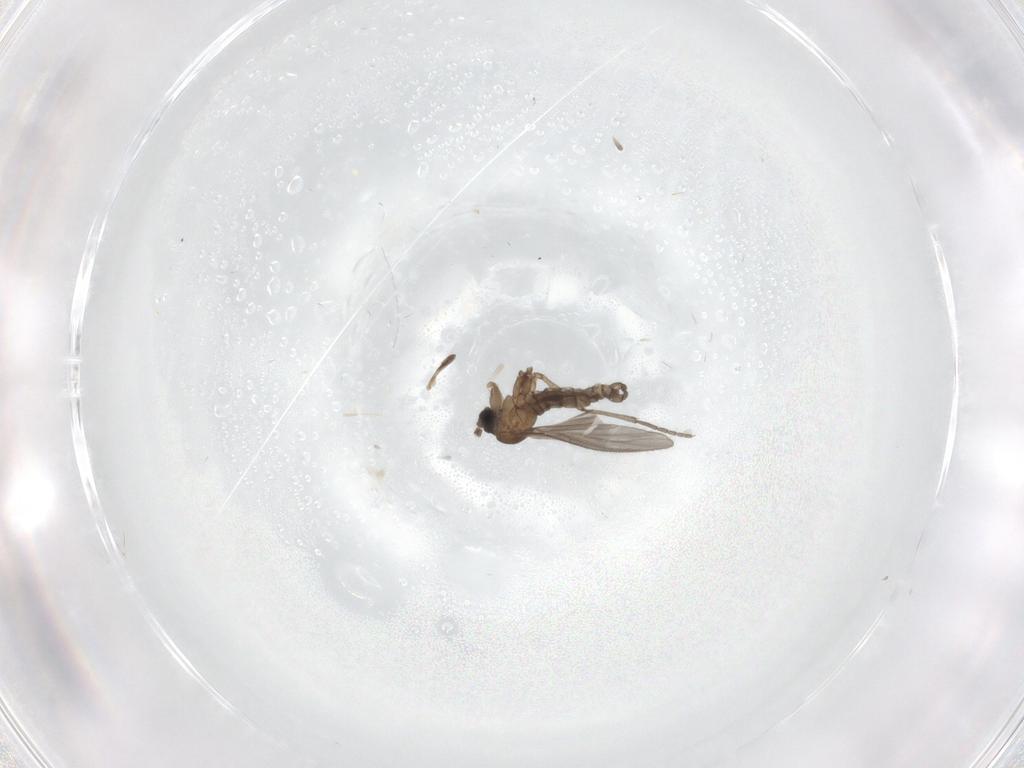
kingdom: Animalia
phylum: Arthropoda
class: Insecta
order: Diptera
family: Sciaridae
